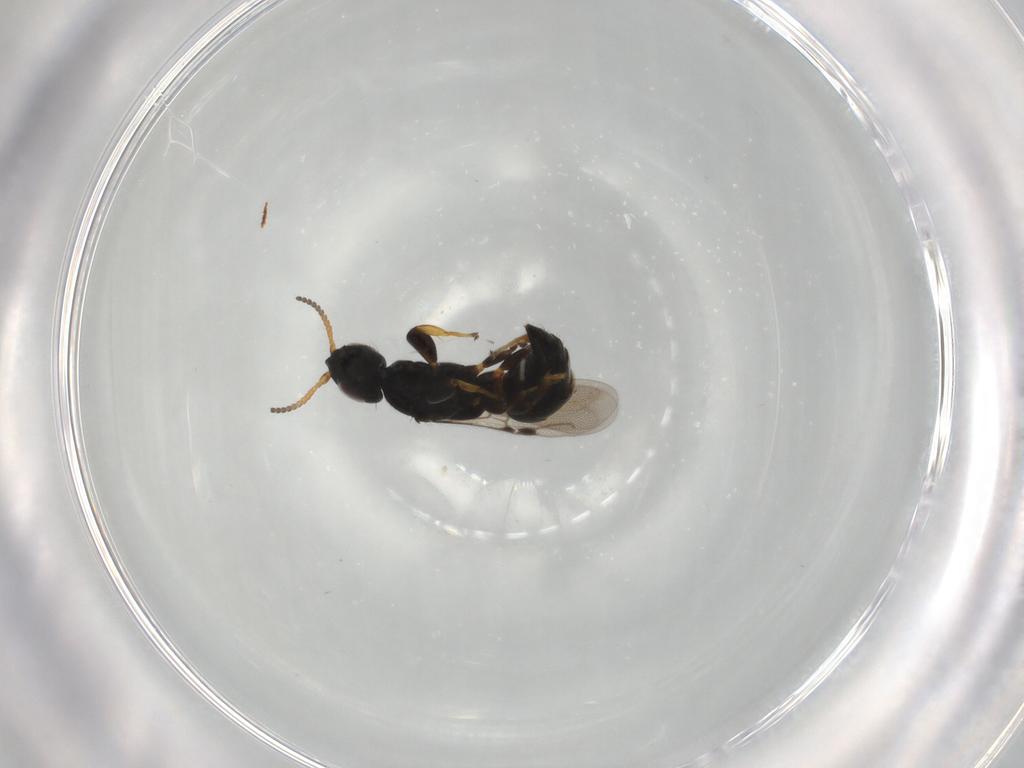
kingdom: Animalia
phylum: Arthropoda
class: Insecta
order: Hymenoptera
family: Bethylidae
